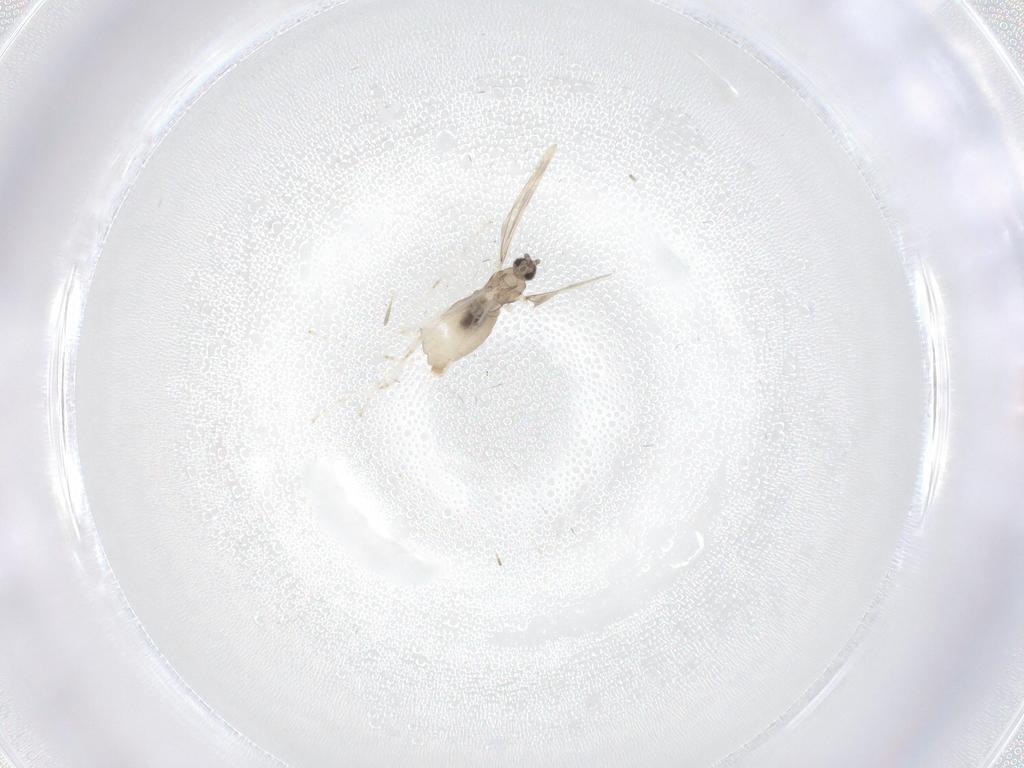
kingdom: Animalia
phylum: Arthropoda
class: Insecta
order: Diptera
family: Cecidomyiidae
